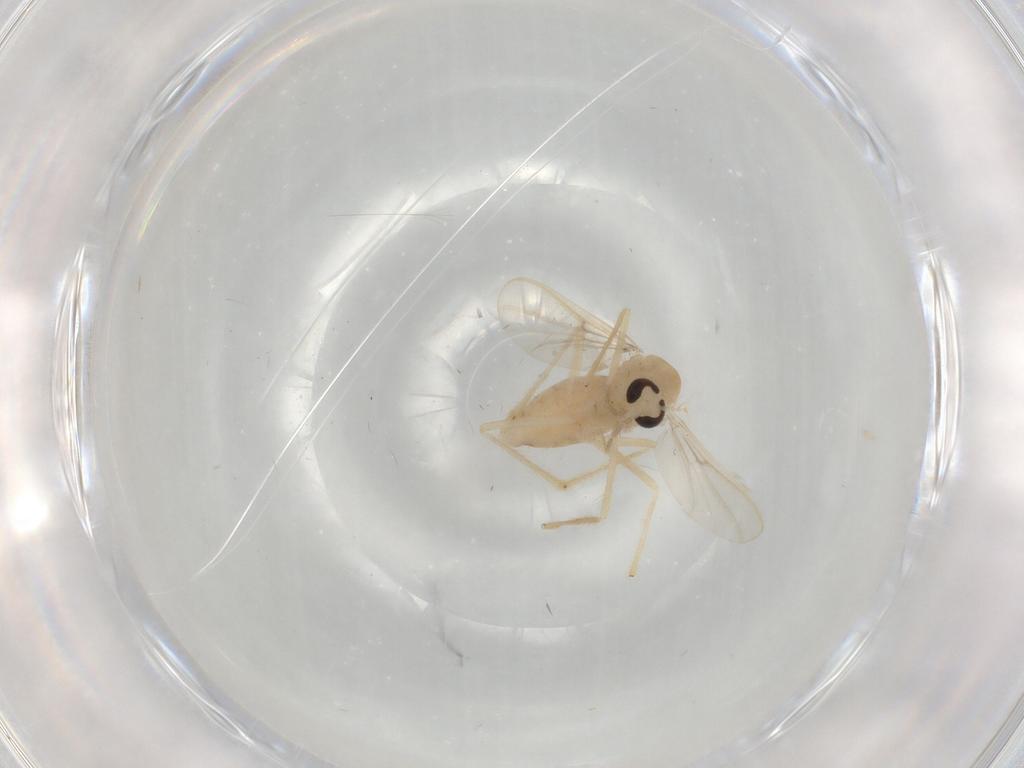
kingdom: Animalia
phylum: Arthropoda
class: Insecta
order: Diptera
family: Chironomidae
